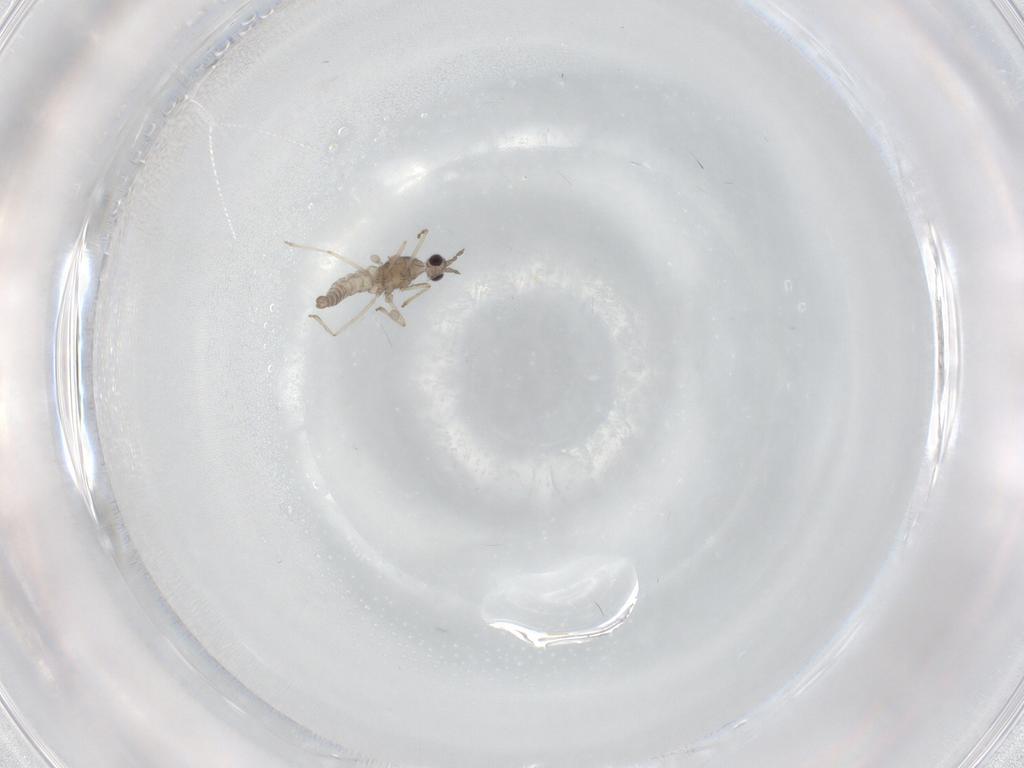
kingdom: Animalia
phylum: Arthropoda
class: Insecta
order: Diptera
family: Cecidomyiidae
